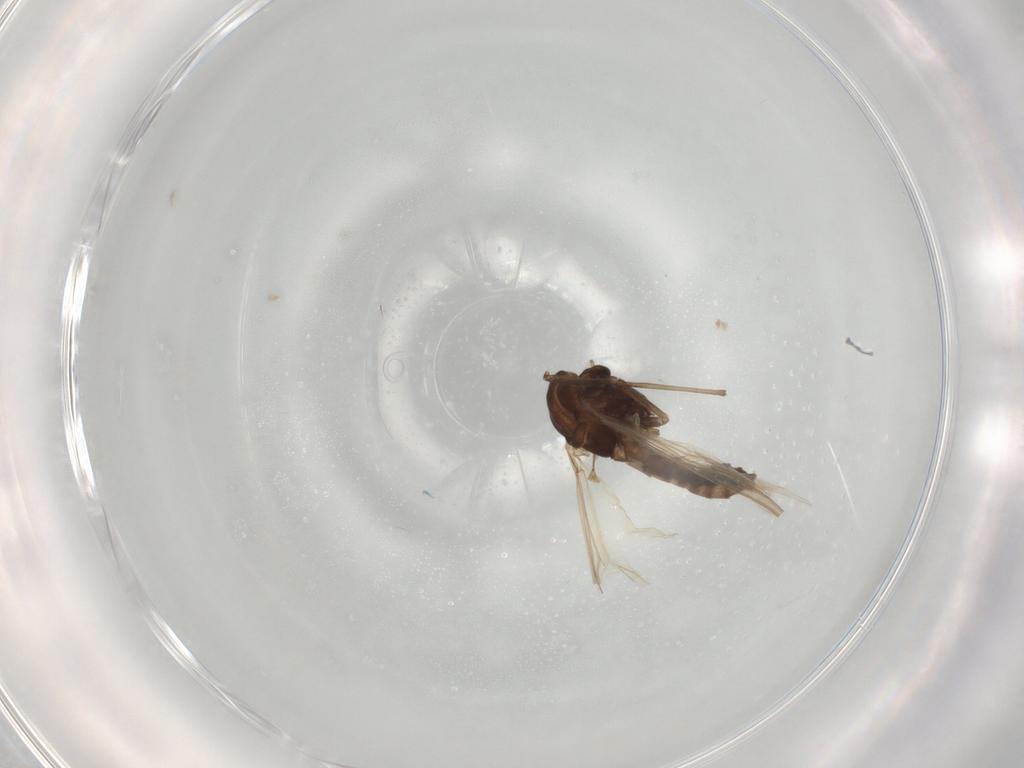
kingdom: Animalia
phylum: Arthropoda
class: Insecta
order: Diptera
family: Chironomidae
